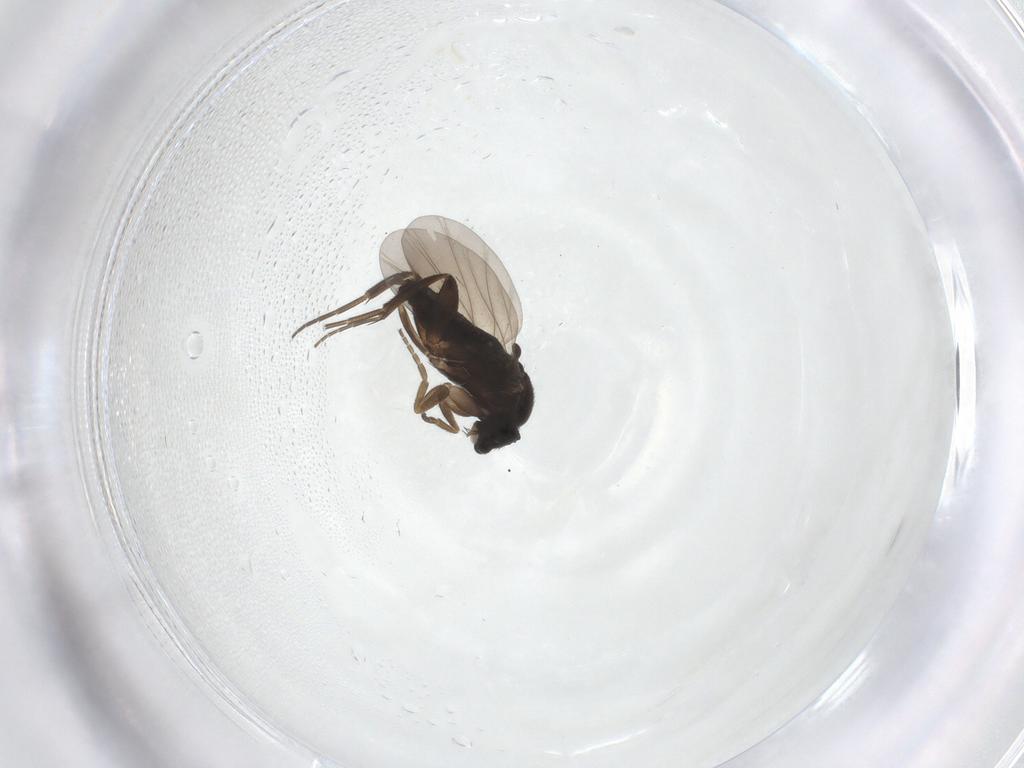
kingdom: Animalia
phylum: Arthropoda
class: Insecta
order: Diptera
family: Phoridae
